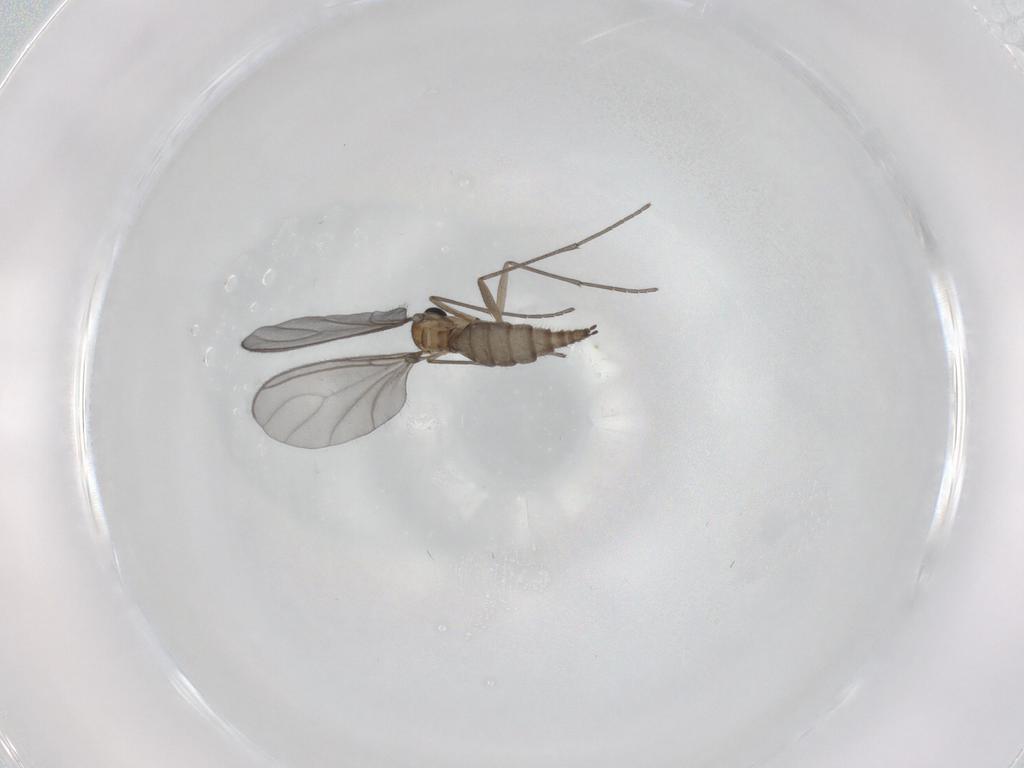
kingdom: Animalia
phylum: Arthropoda
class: Insecta
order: Diptera
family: Sciaridae
